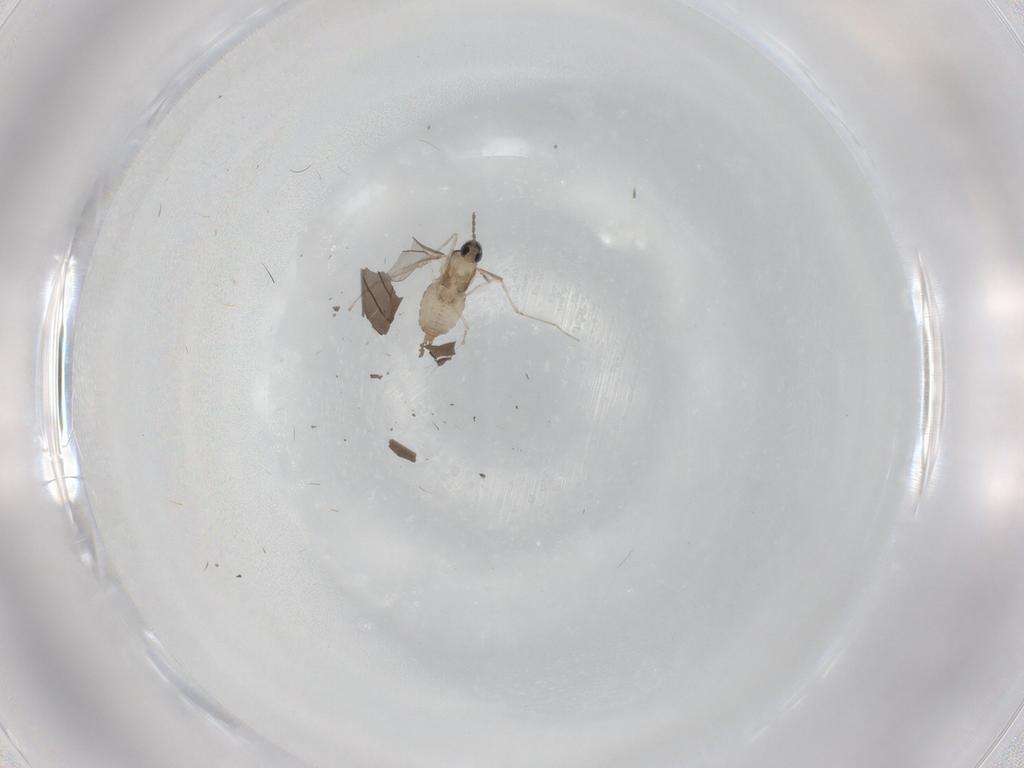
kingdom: Animalia
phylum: Arthropoda
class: Insecta
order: Diptera
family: Cecidomyiidae
